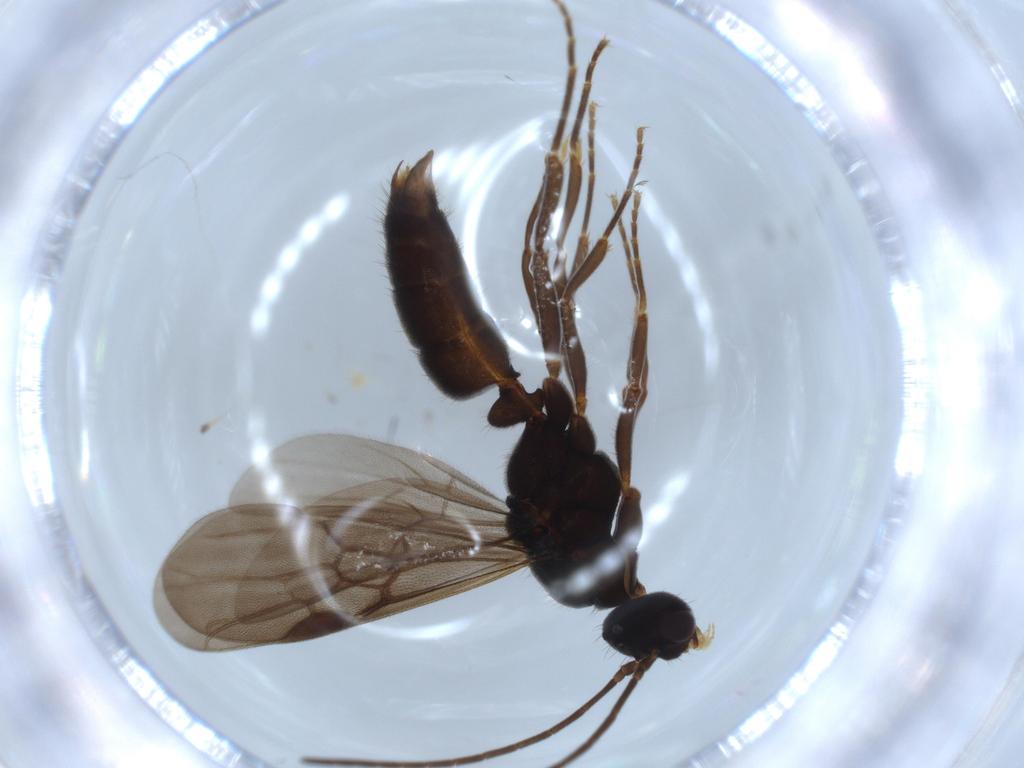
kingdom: Animalia
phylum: Arthropoda
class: Insecta
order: Hymenoptera
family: Formicidae
